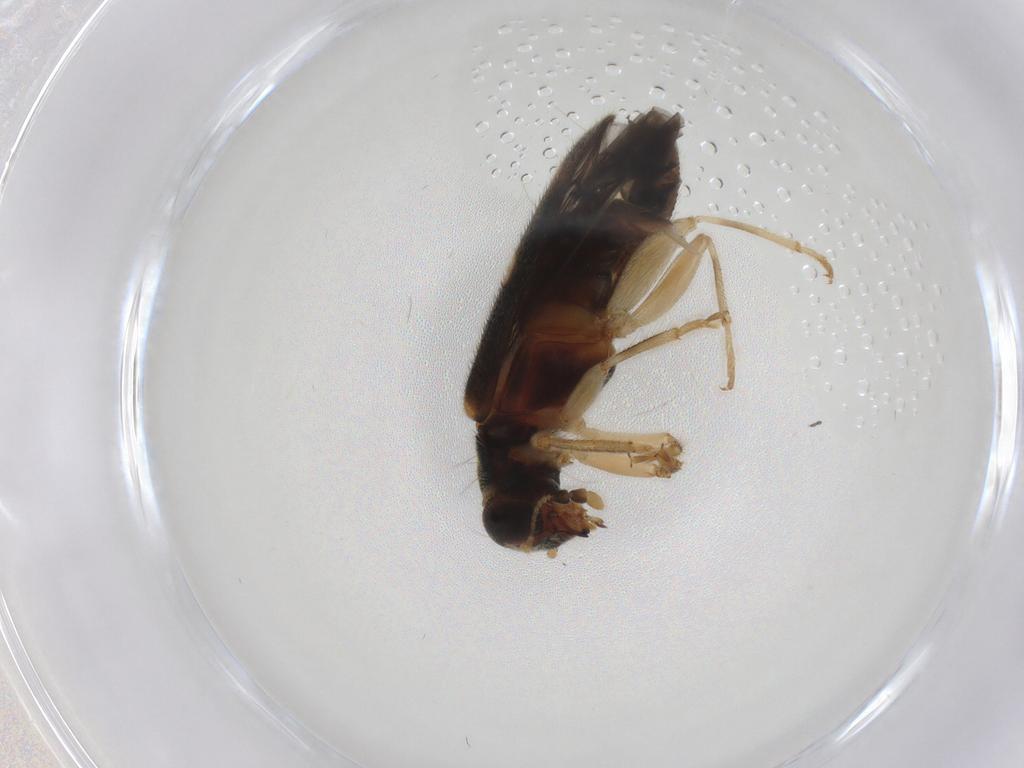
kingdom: Animalia
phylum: Arthropoda
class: Insecta
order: Coleoptera
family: Cleridae
